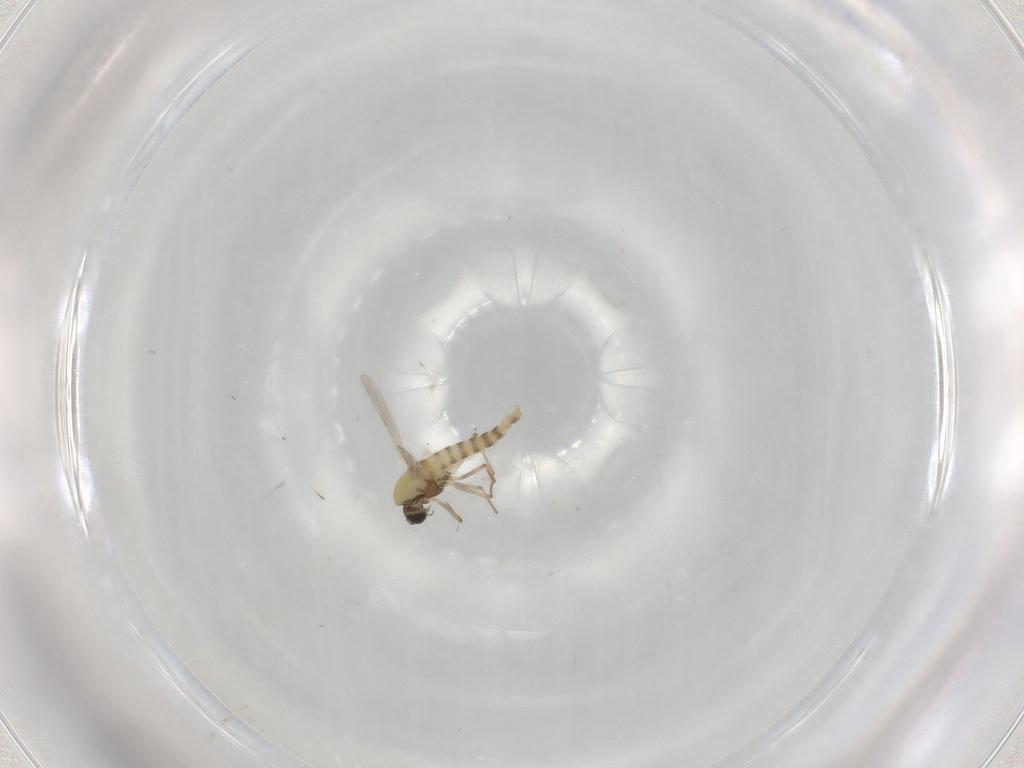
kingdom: Animalia
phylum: Arthropoda
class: Insecta
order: Diptera
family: Chironomidae
